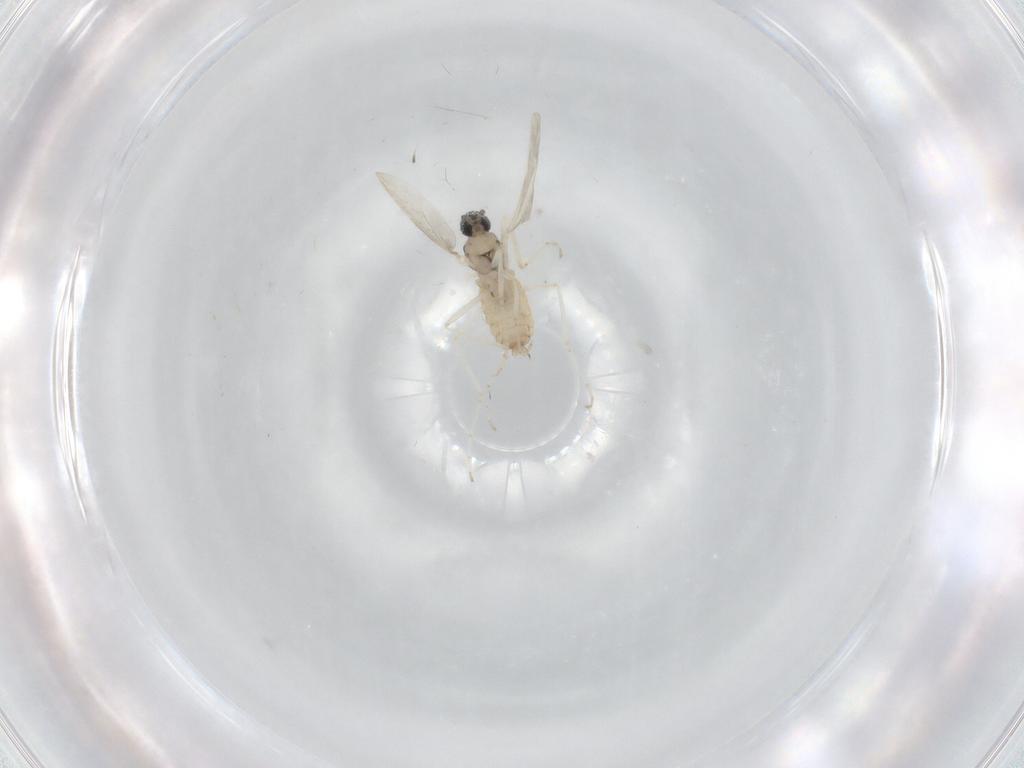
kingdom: Animalia
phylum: Arthropoda
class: Insecta
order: Diptera
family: Cecidomyiidae
